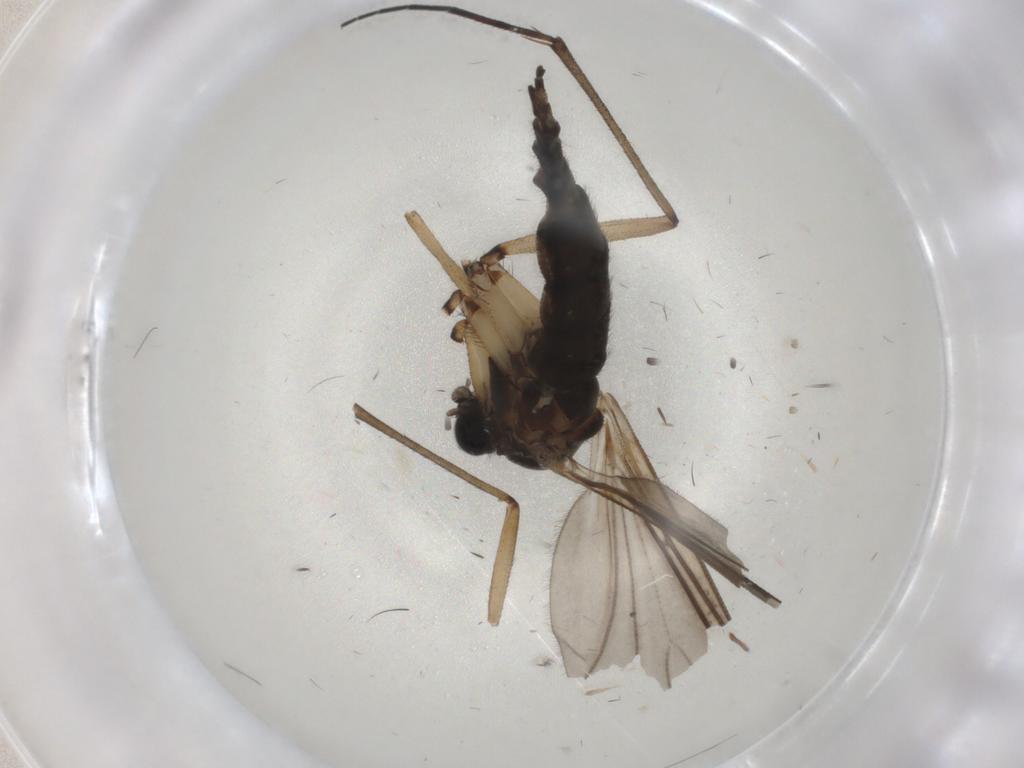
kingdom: Animalia
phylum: Arthropoda
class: Insecta
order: Diptera
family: Sciaridae
